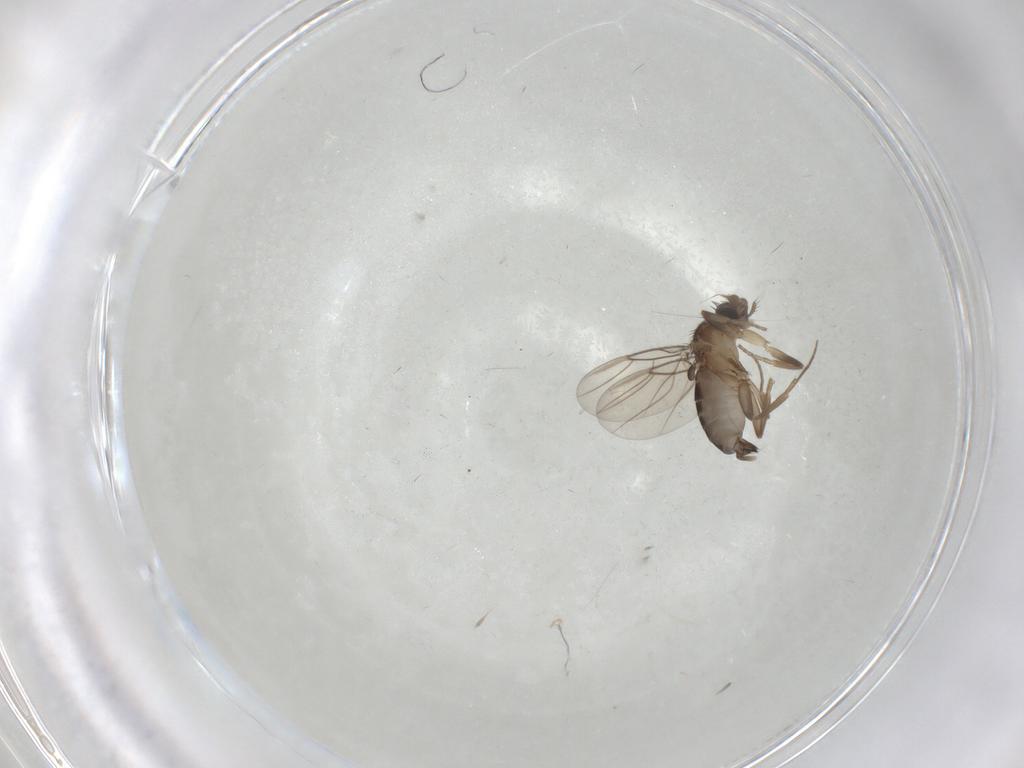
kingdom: Animalia
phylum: Arthropoda
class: Insecta
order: Diptera
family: Phoridae
